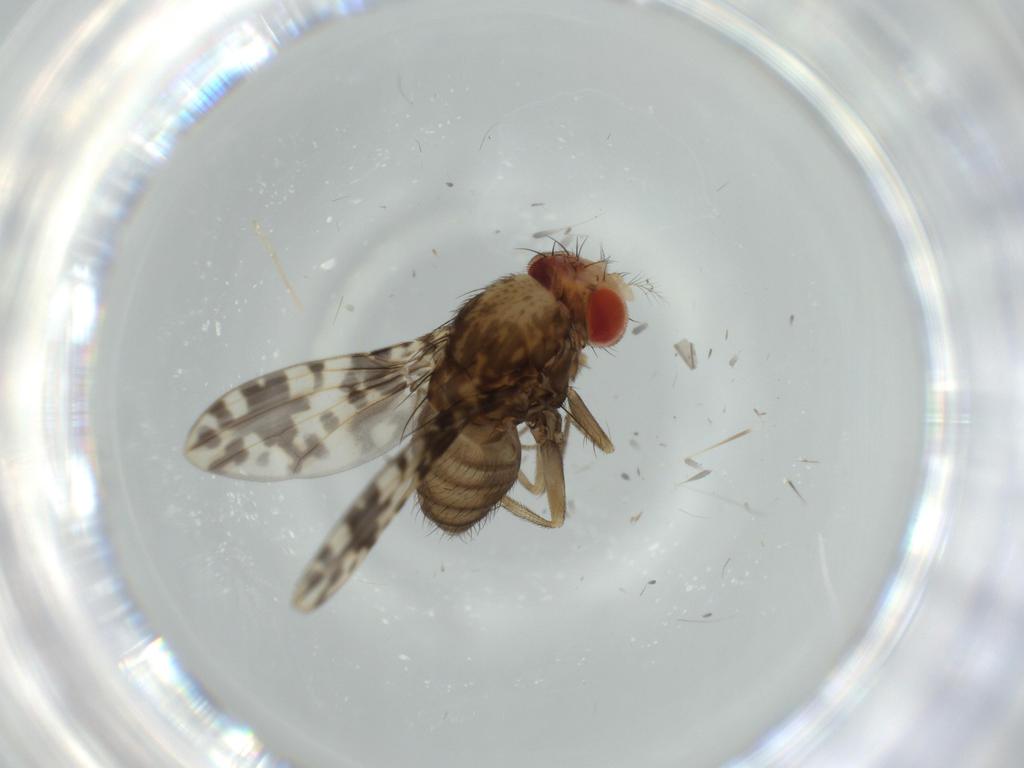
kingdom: Animalia
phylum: Arthropoda
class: Insecta
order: Diptera
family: Drosophilidae
